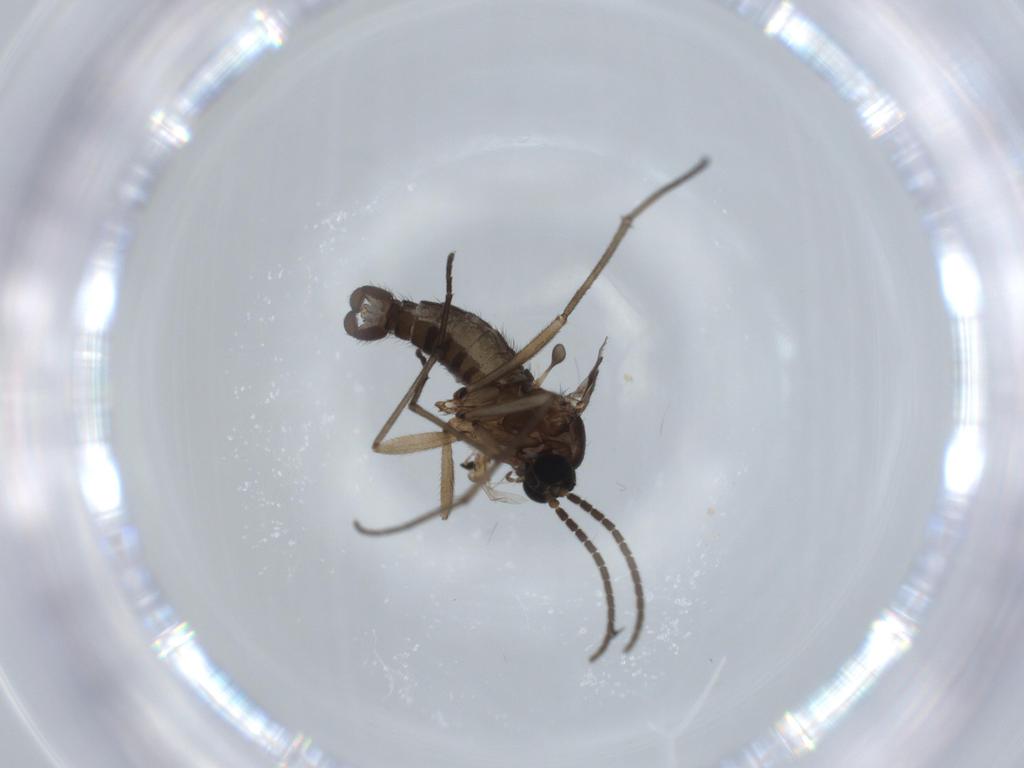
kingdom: Animalia
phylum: Arthropoda
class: Insecta
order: Diptera
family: Sciaridae
